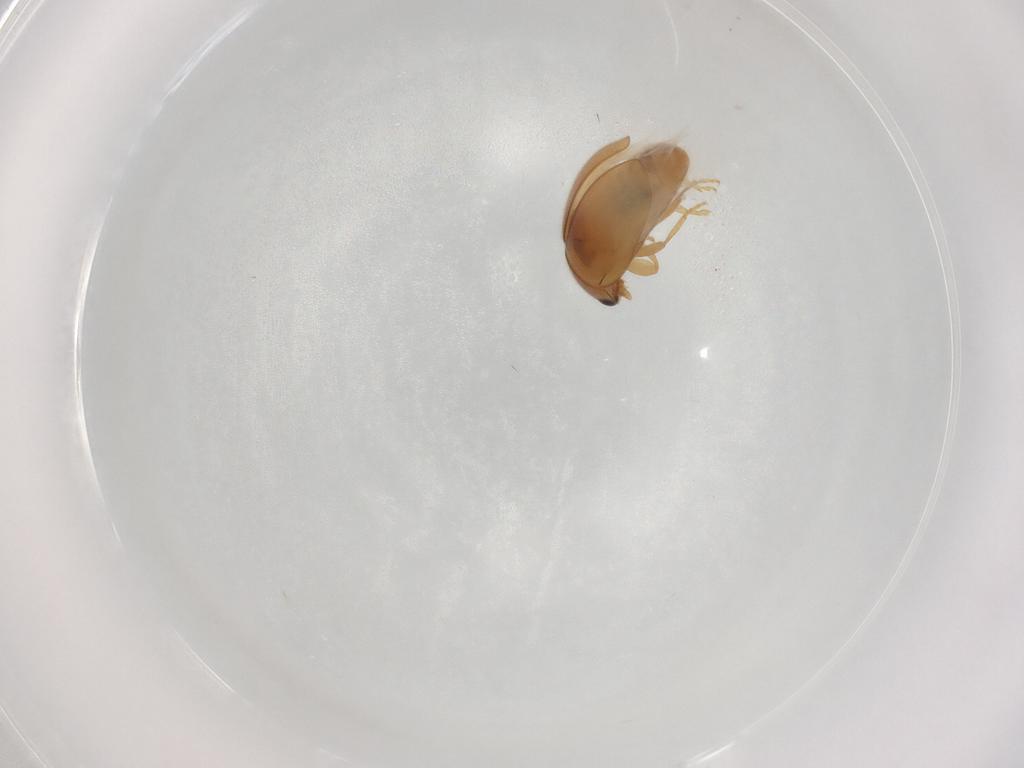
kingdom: Animalia
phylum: Arthropoda
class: Insecta
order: Coleoptera
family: Coccinellidae
